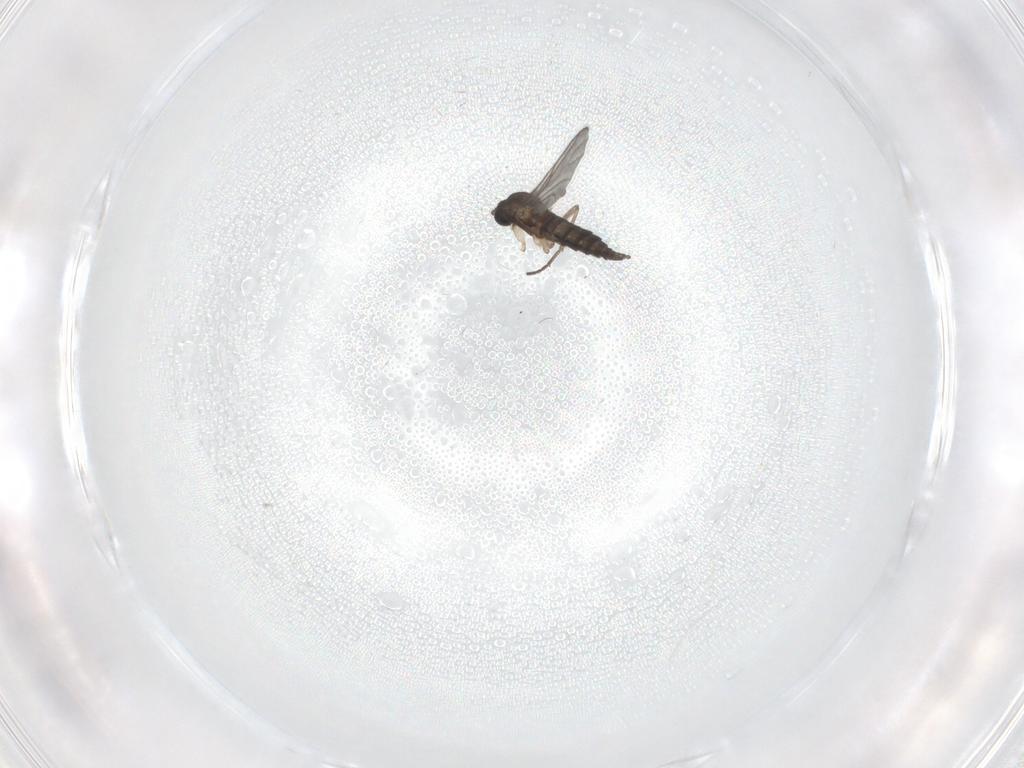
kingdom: Animalia
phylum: Arthropoda
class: Insecta
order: Diptera
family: Sciaridae
